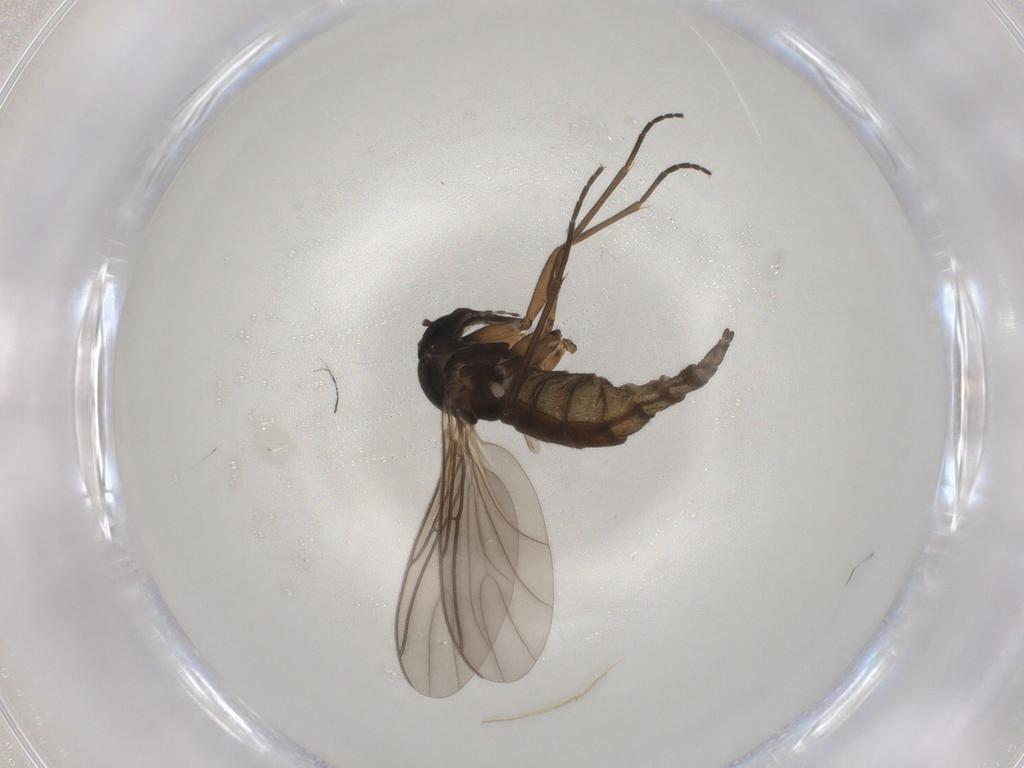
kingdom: Animalia
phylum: Arthropoda
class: Insecta
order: Diptera
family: Sciaridae
